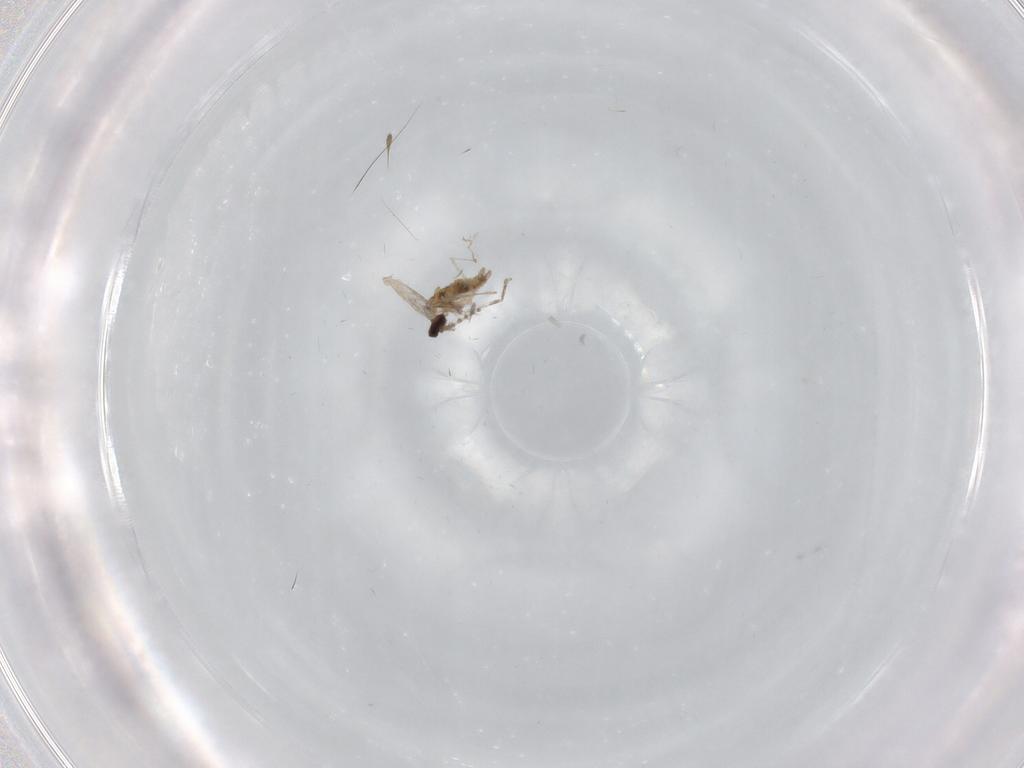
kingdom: Animalia
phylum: Arthropoda
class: Insecta
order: Diptera
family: Cecidomyiidae
